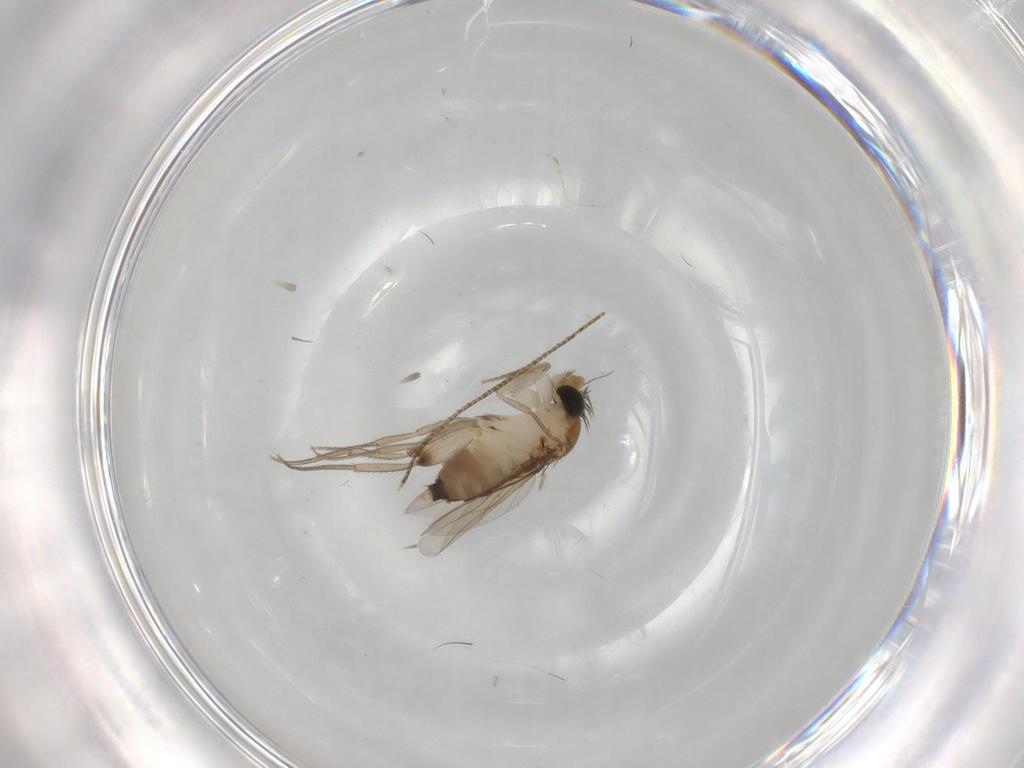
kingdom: Animalia
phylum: Arthropoda
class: Insecta
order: Diptera
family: Phoridae
